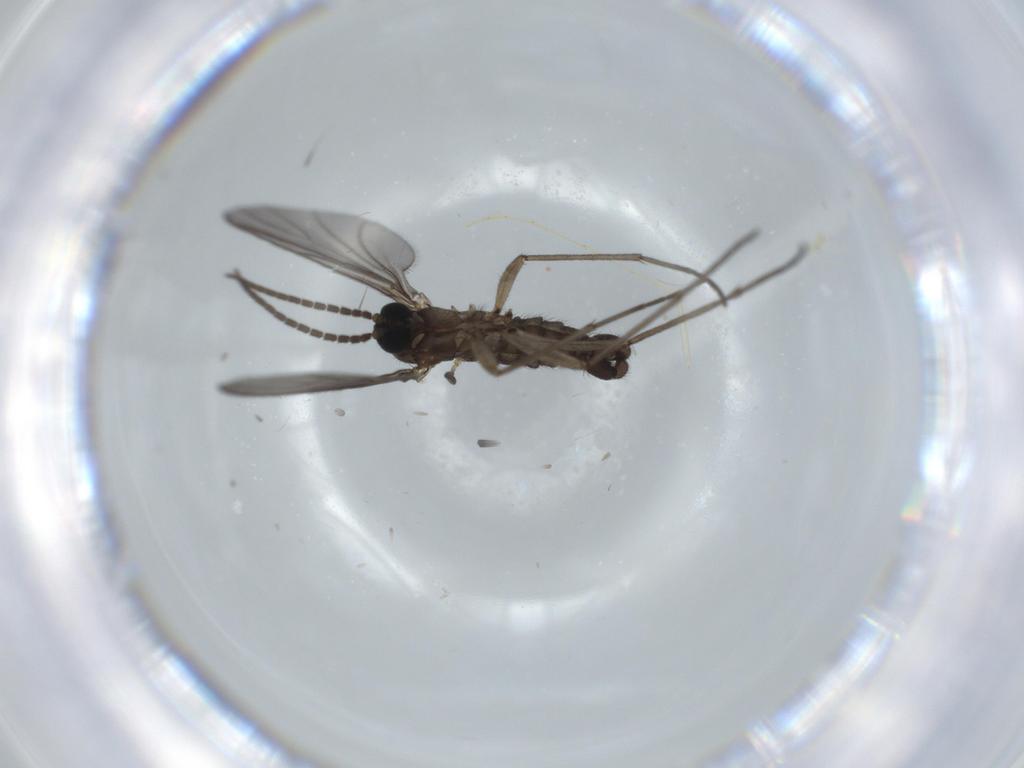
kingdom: Animalia
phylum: Arthropoda
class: Insecta
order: Diptera
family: Sciaridae
